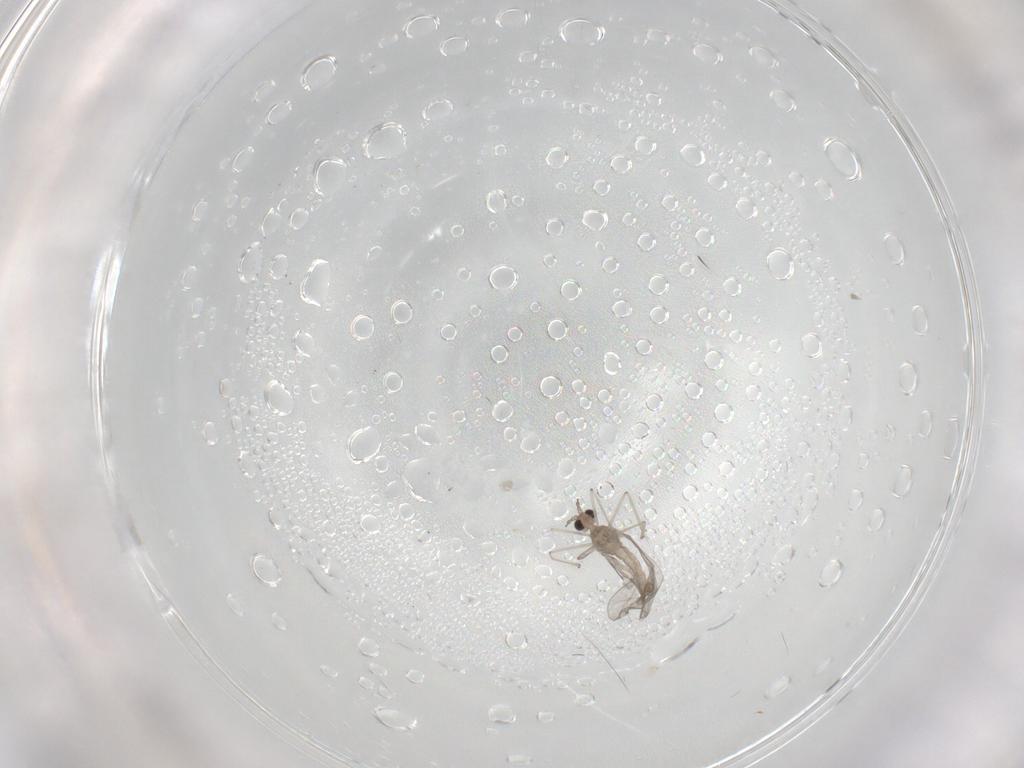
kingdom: Animalia
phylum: Arthropoda
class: Insecta
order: Diptera
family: Cecidomyiidae
